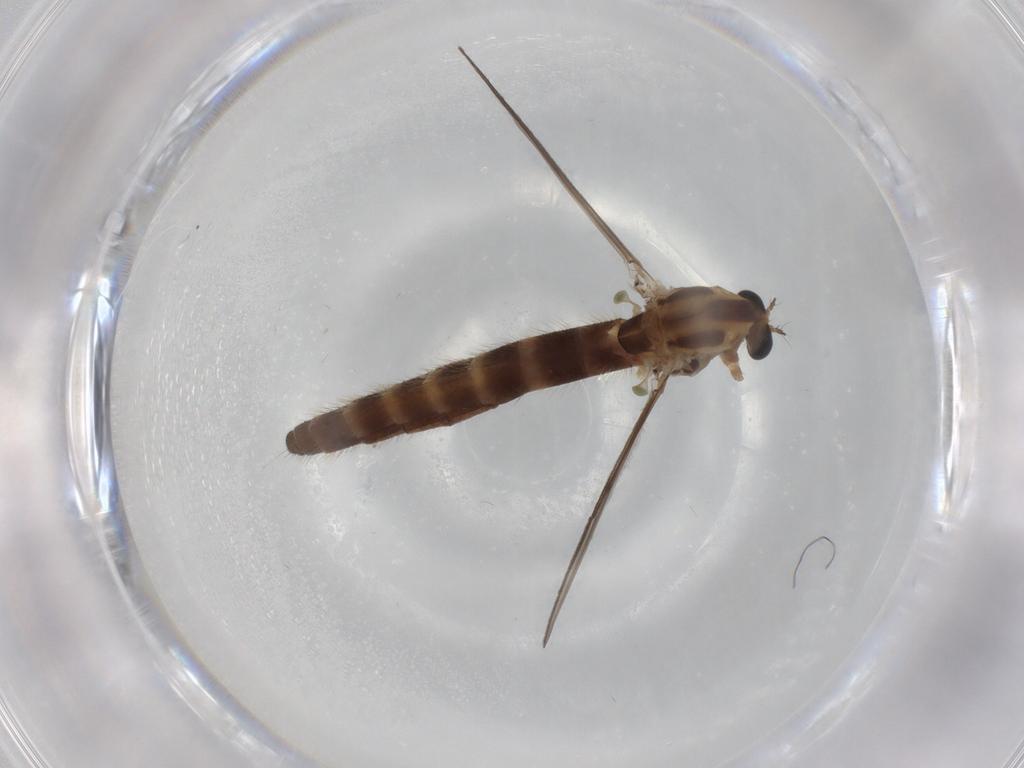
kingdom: Animalia
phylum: Arthropoda
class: Insecta
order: Diptera
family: Chironomidae
